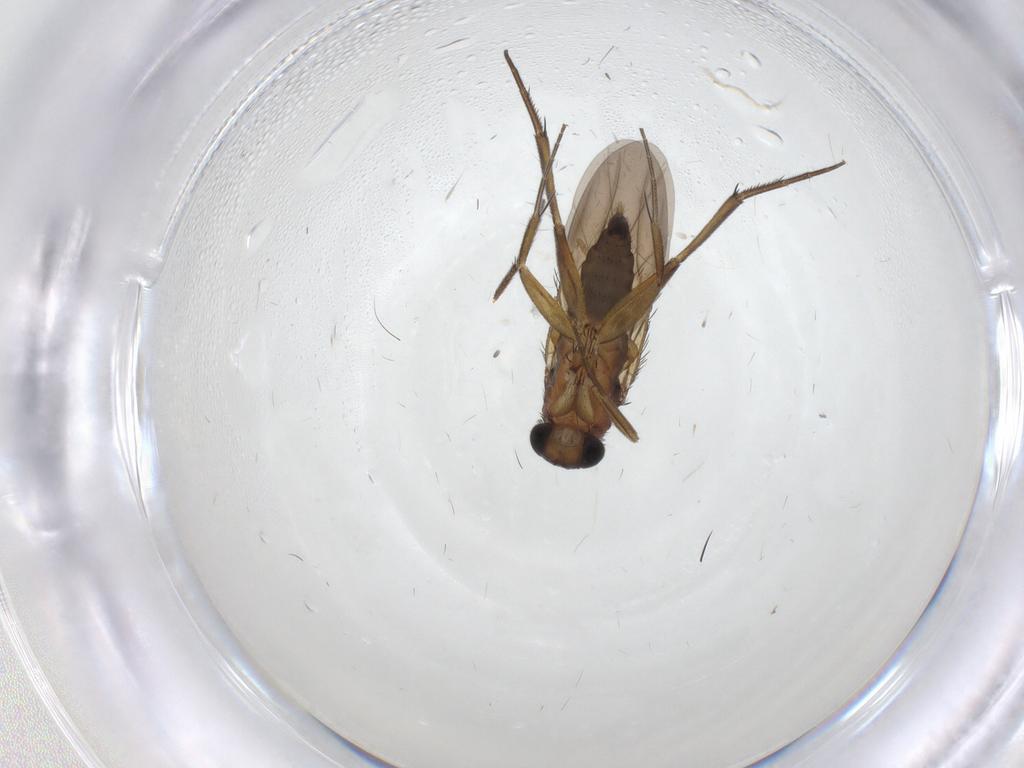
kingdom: Animalia
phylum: Arthropoda
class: Insecta
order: Diptera
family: Phoridae
